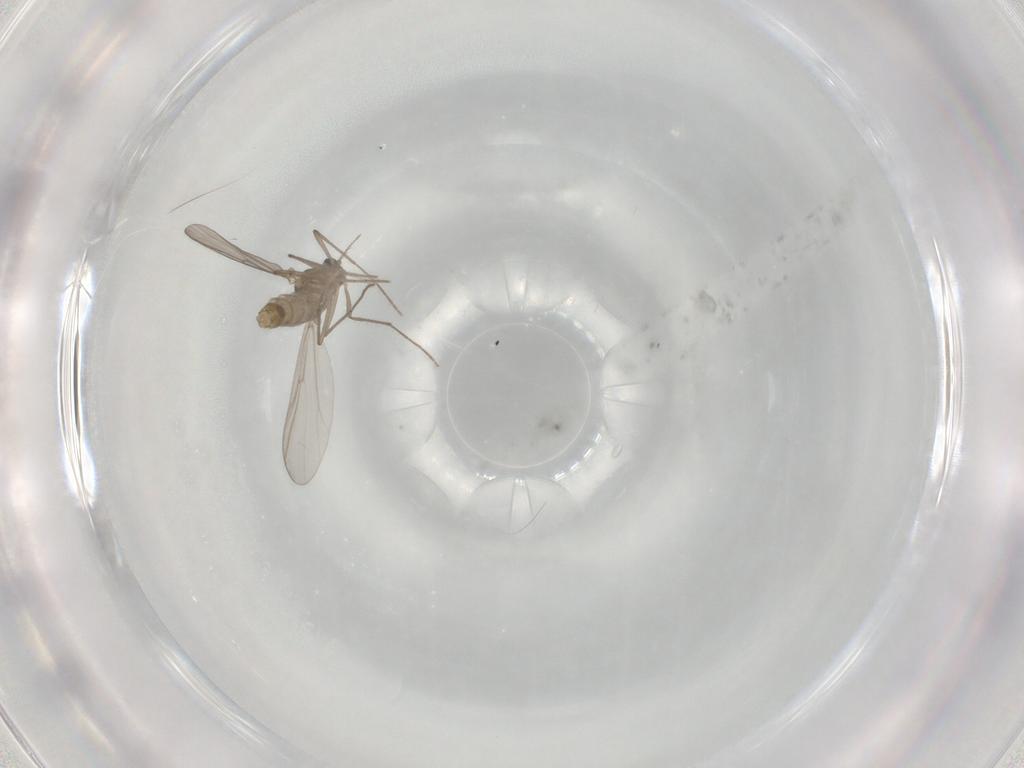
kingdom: Animalia
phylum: Arthropoda
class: Insecta
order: Diptera
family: Chironomidae
